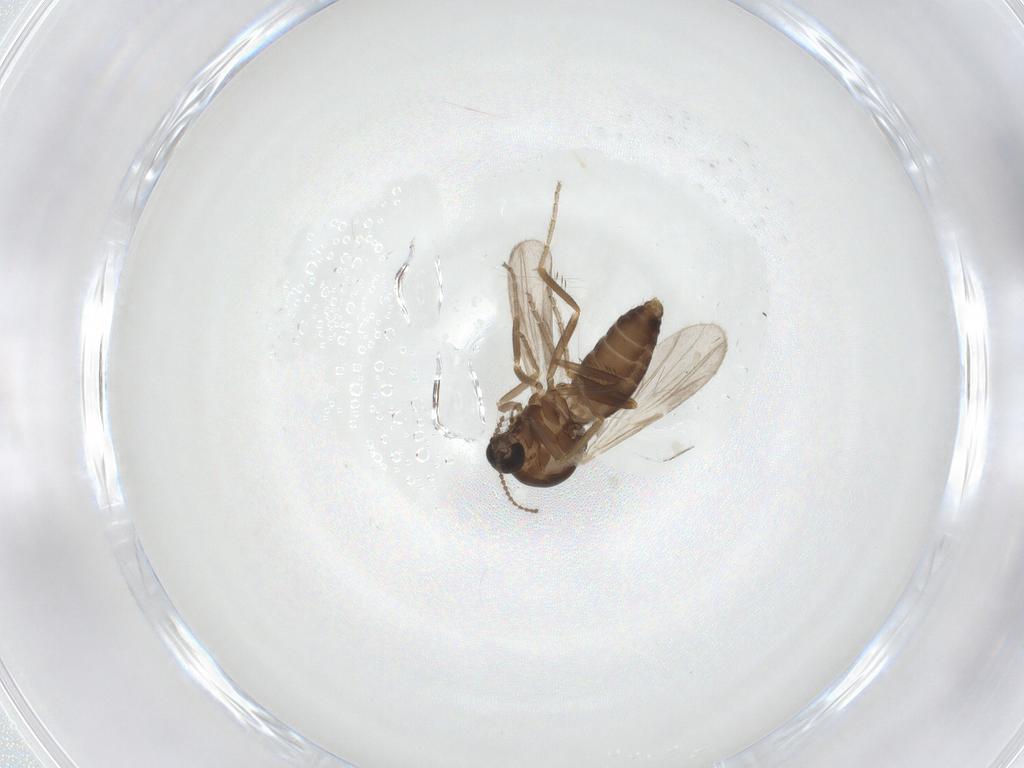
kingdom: Animalia
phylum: Arthropoda
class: Insecta
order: Diptera
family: Ceratopogonidae
